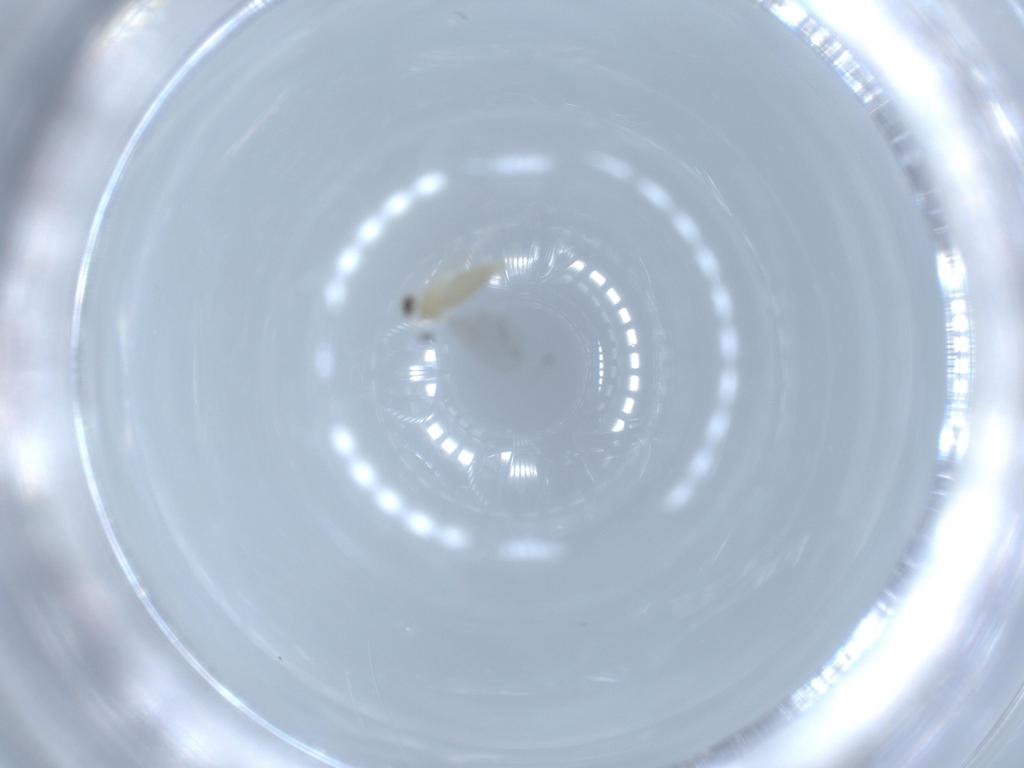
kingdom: Animalia
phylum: Arthropoda
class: Insecta
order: Diptera
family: Cecidomyiidae
